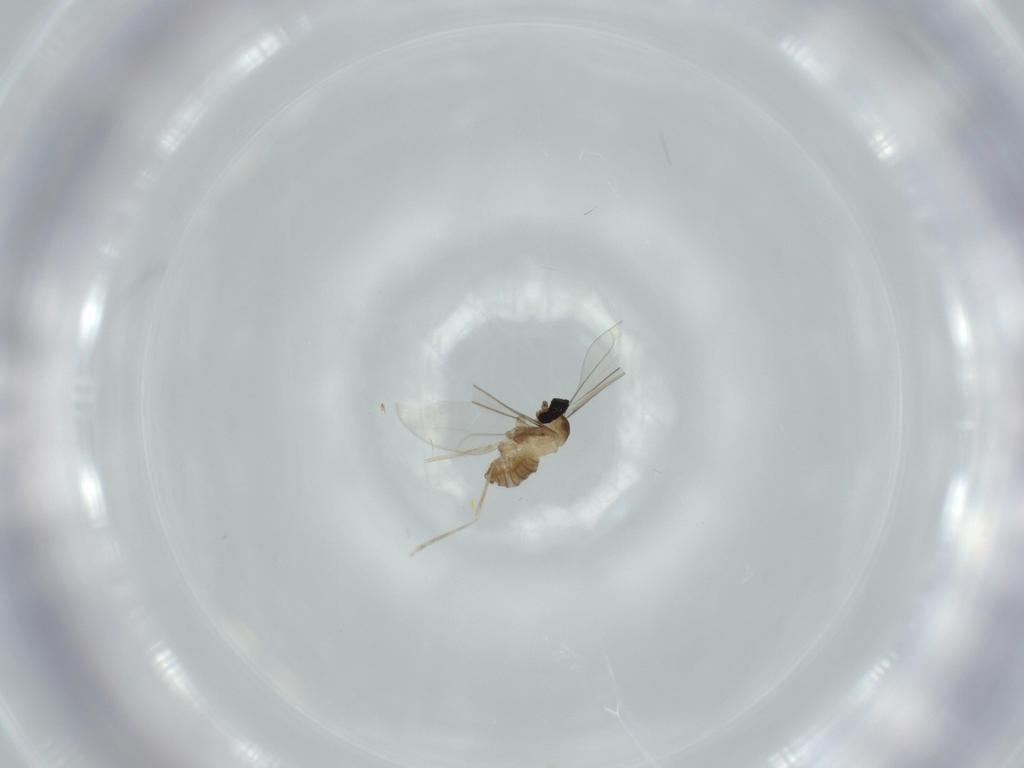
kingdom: Animalia
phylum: Arthropoda
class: Insecta
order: Diptera
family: Cecidomyiidae
